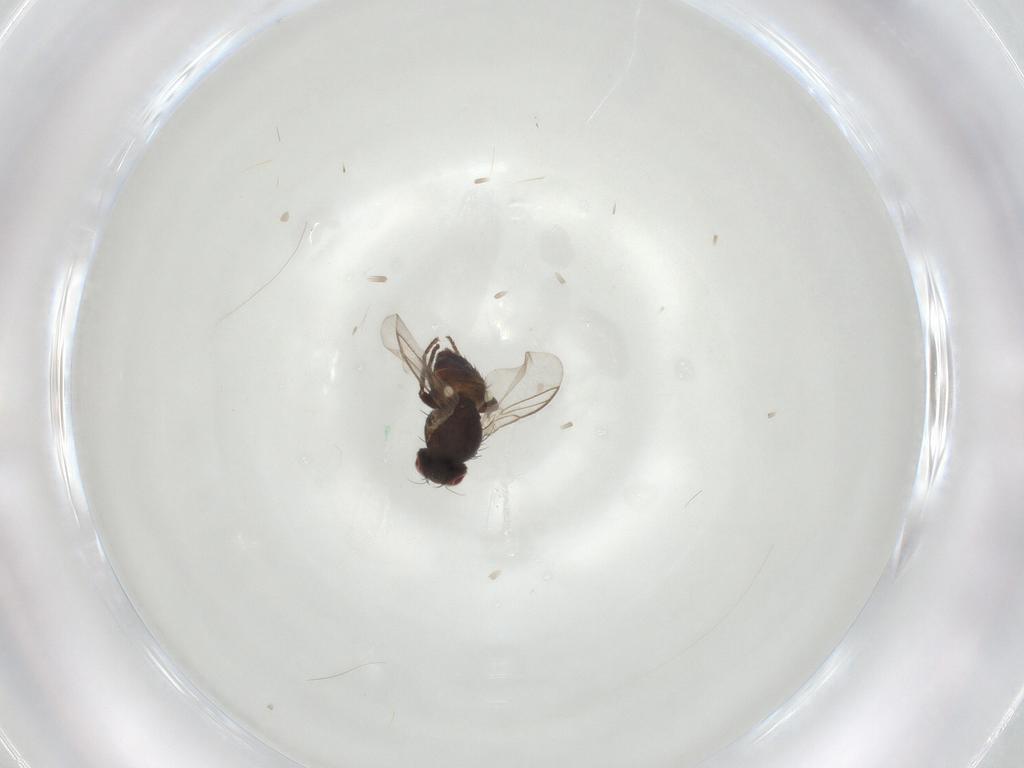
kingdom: Animalia
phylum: Arthropoda
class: Insecta
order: Diptera
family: Agromyzidae
